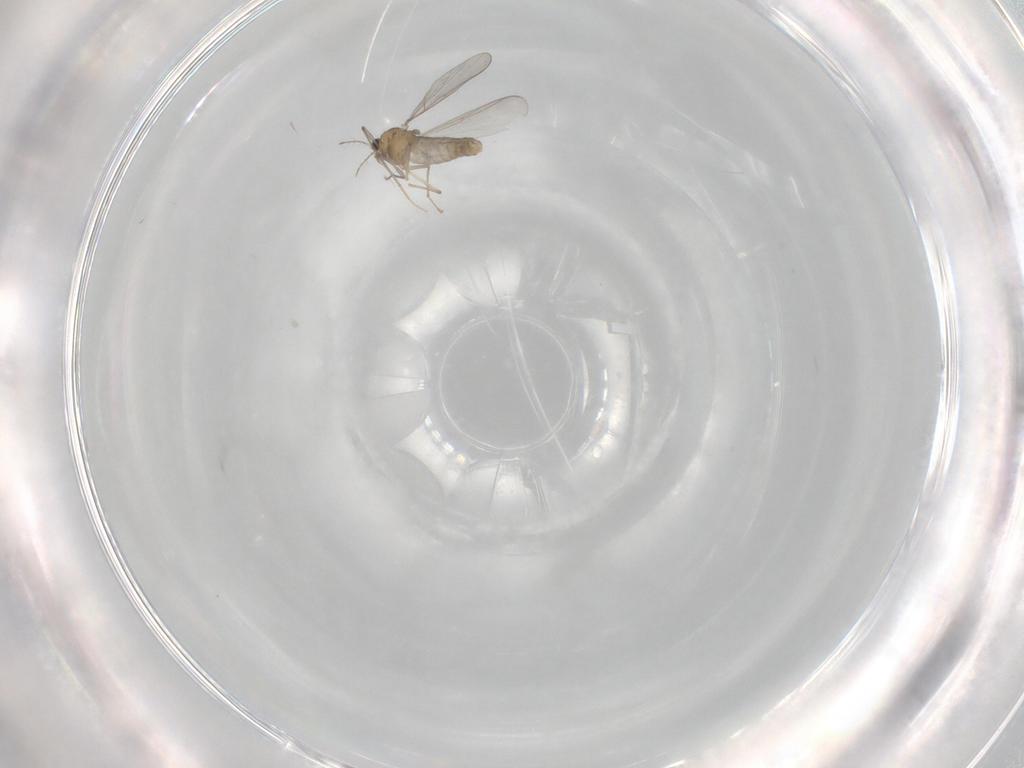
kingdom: Animalia
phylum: Arthropoda
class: Insecta
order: Diptera
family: Chironomidae
